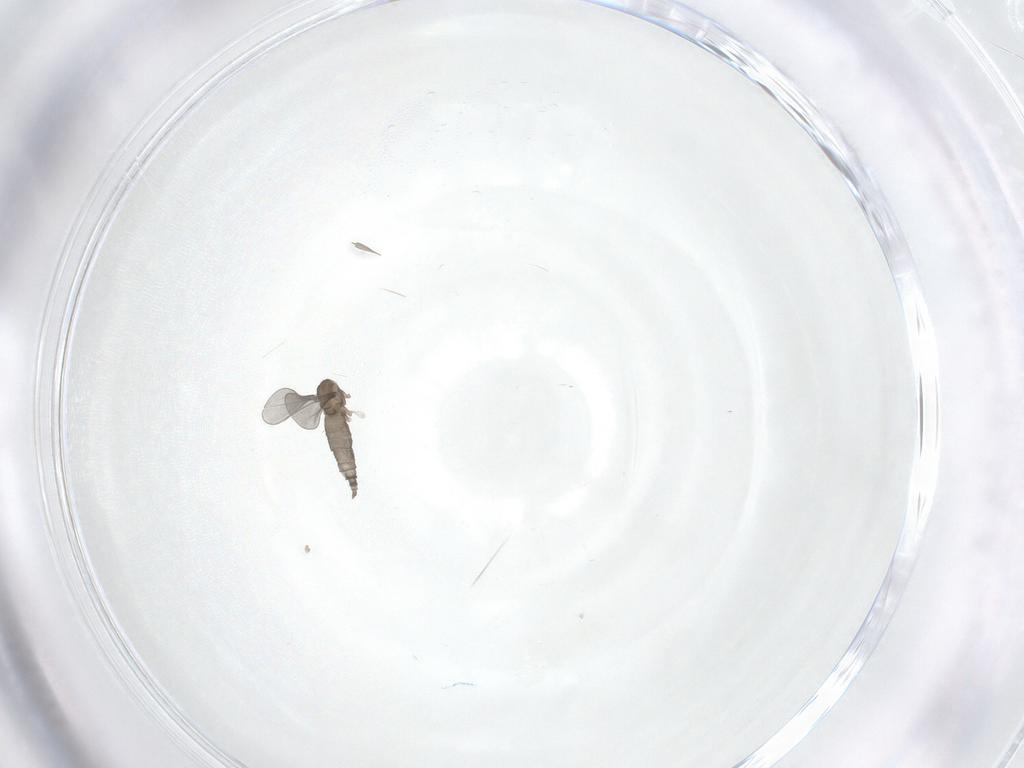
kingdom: Animalia
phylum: Arthropoda
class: Insecta
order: Diptera
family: Cecidomyiidae
